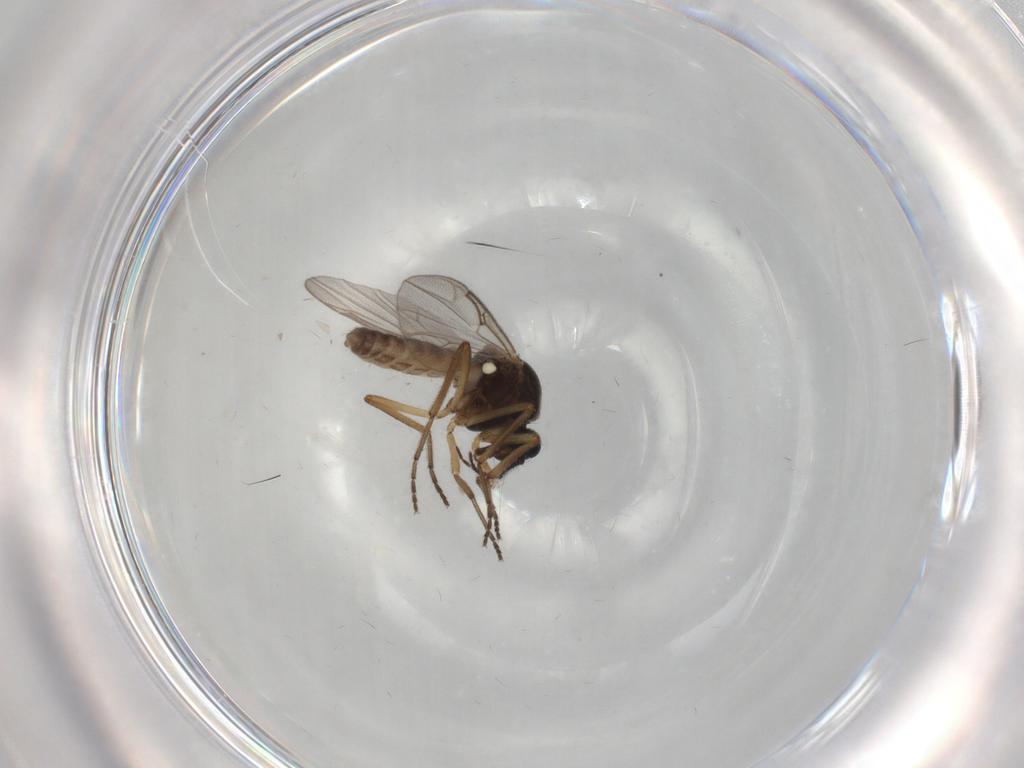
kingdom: Animalia
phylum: Arthropoda
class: Insecta
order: Diptera
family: Ceratopogonidae
